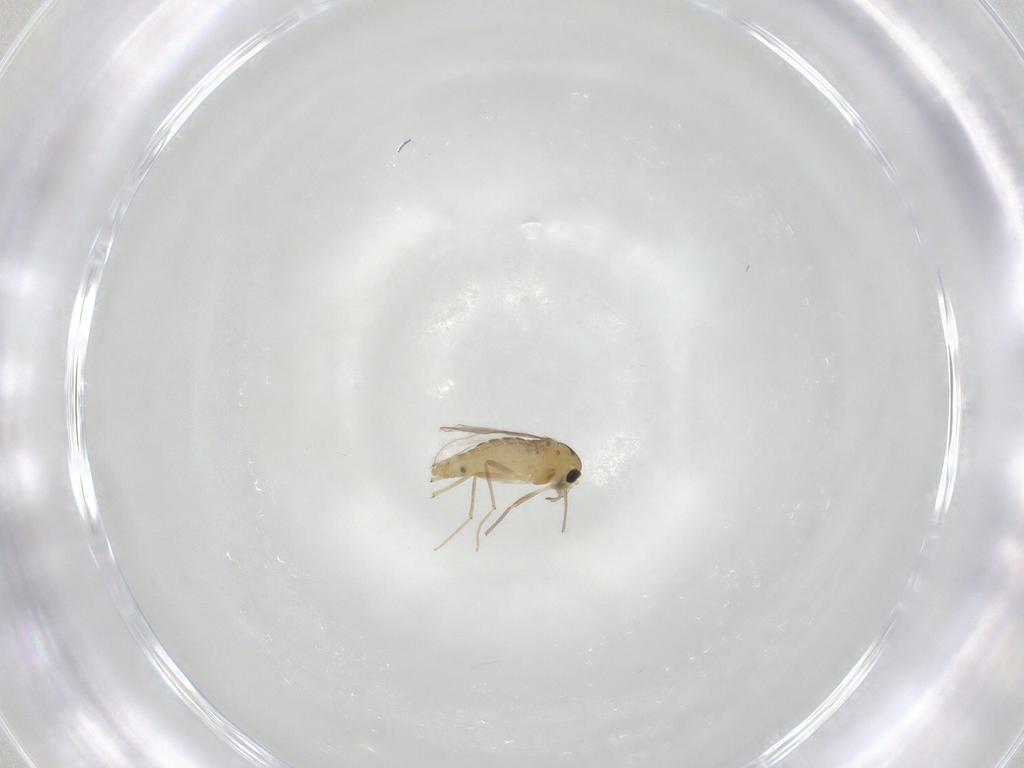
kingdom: Animalia
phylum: Arthropoda
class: Insecta
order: Diptera
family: Chironomidae
